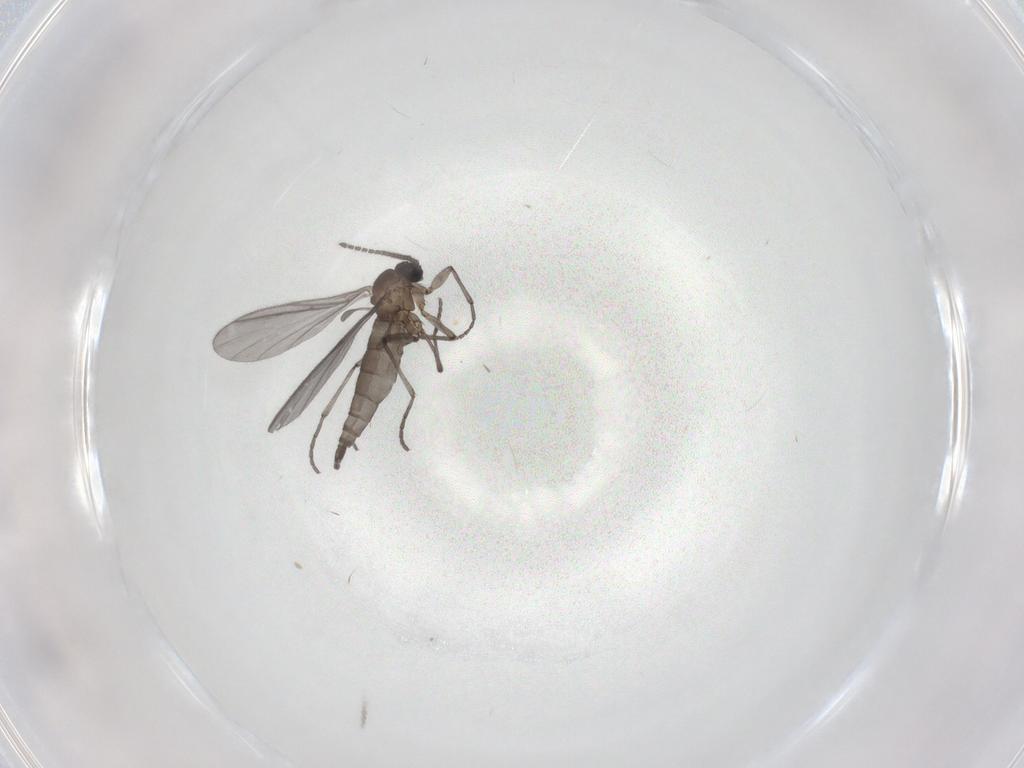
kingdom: Animalia
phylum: Arthropoda
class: Insecta
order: Diptera
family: Sciaridae
